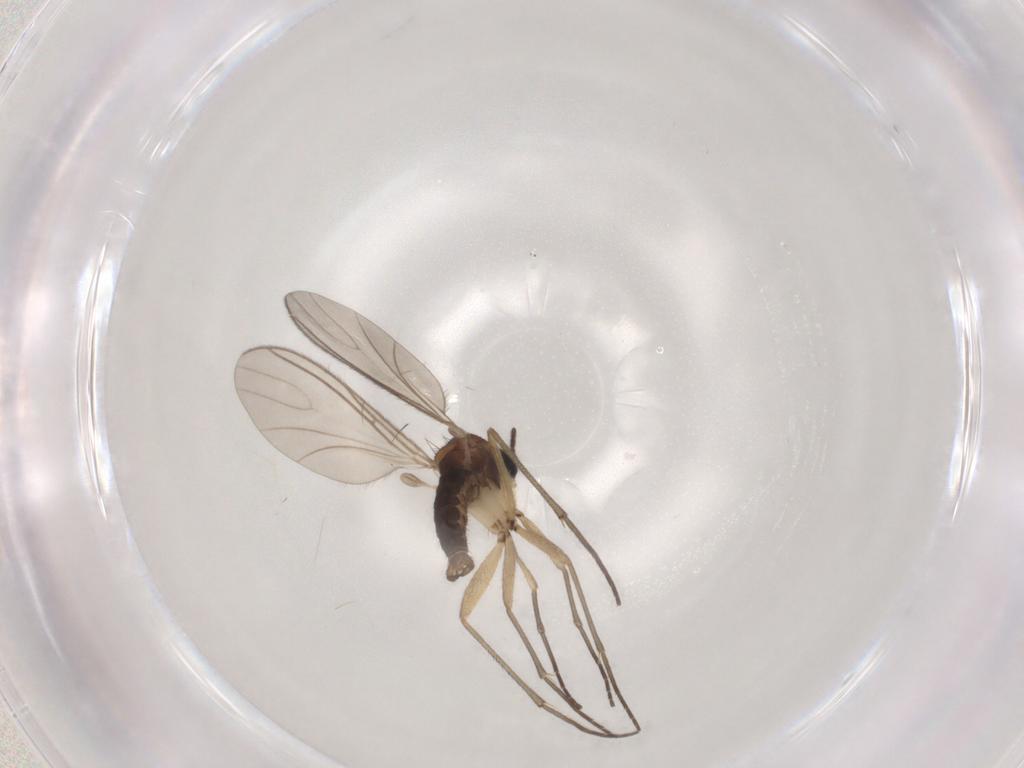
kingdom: Animalia
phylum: Arthropoda
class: Insecta
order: Diptera
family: Sciaridae
